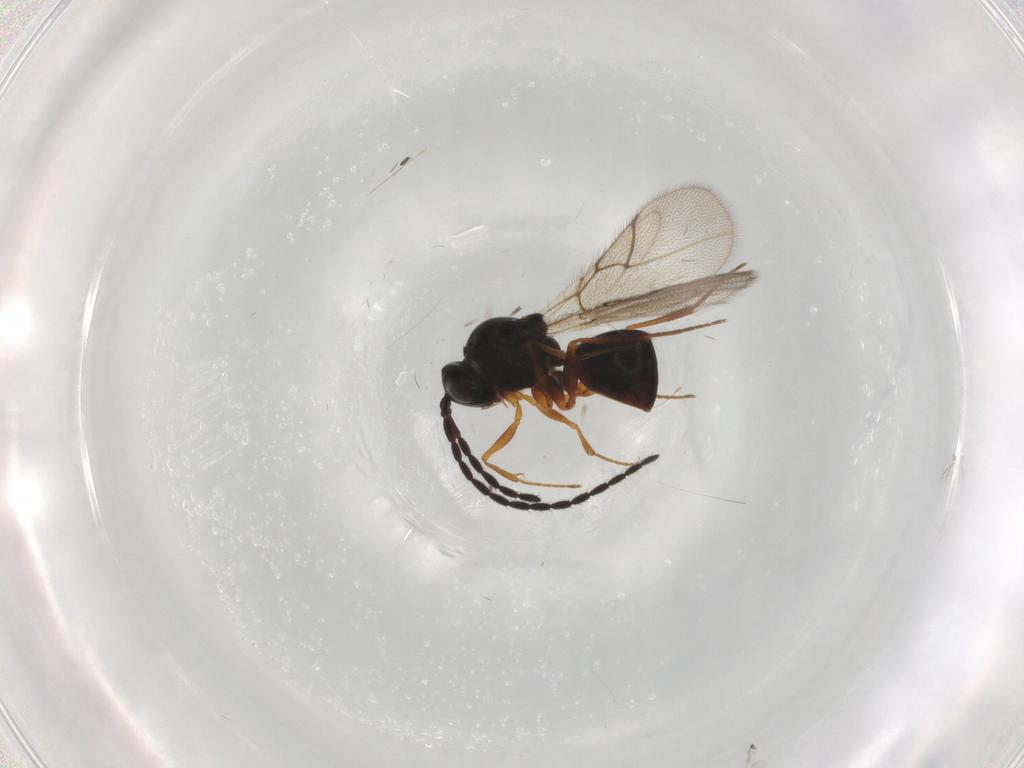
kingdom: Animalia
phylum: Arthropoda
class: Insecta
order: Hymenoptera
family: Figitidae
